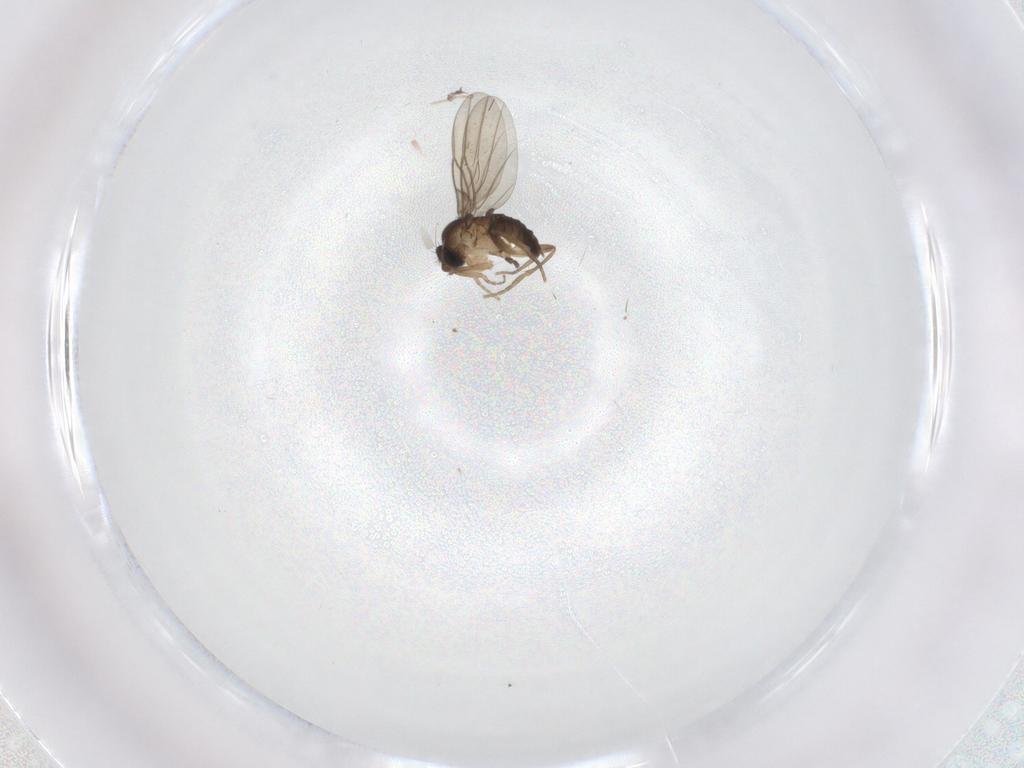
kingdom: Animalia
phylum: Arthropoda
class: Insecta
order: Diptera
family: Phoridae
